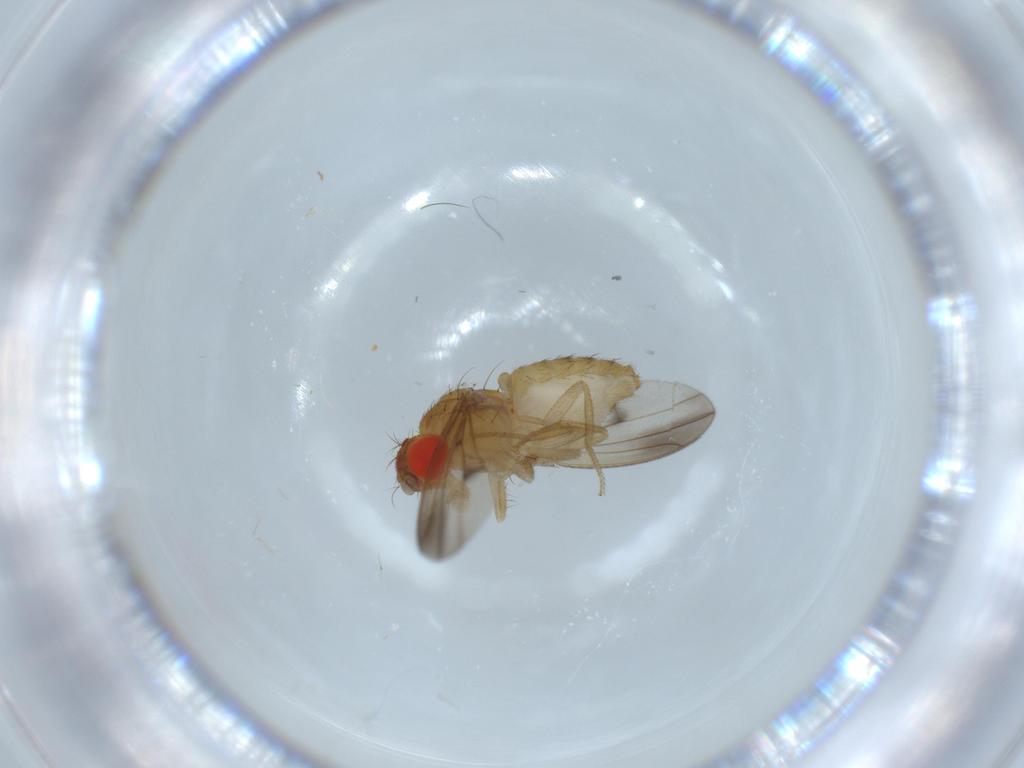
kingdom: Animalia
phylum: Arthropoda
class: Insecta
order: Diptera
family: Drosophilidae
